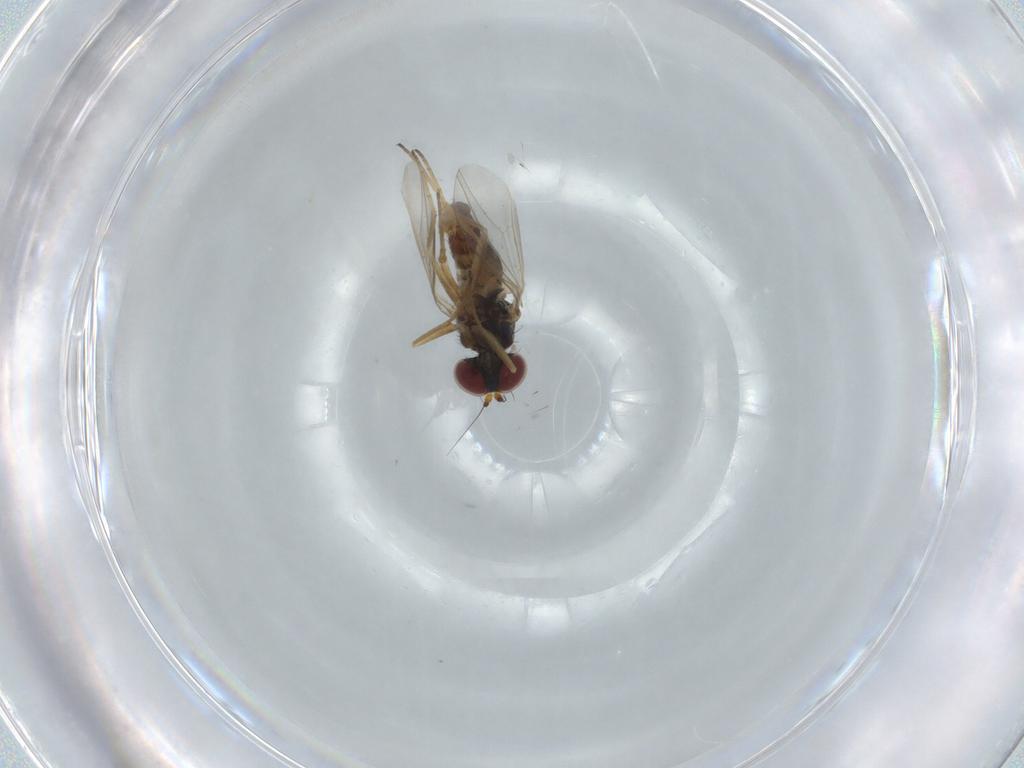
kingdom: Animalia
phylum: Arthropoda
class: Insecta
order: Diptera
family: Dolichopodidae
